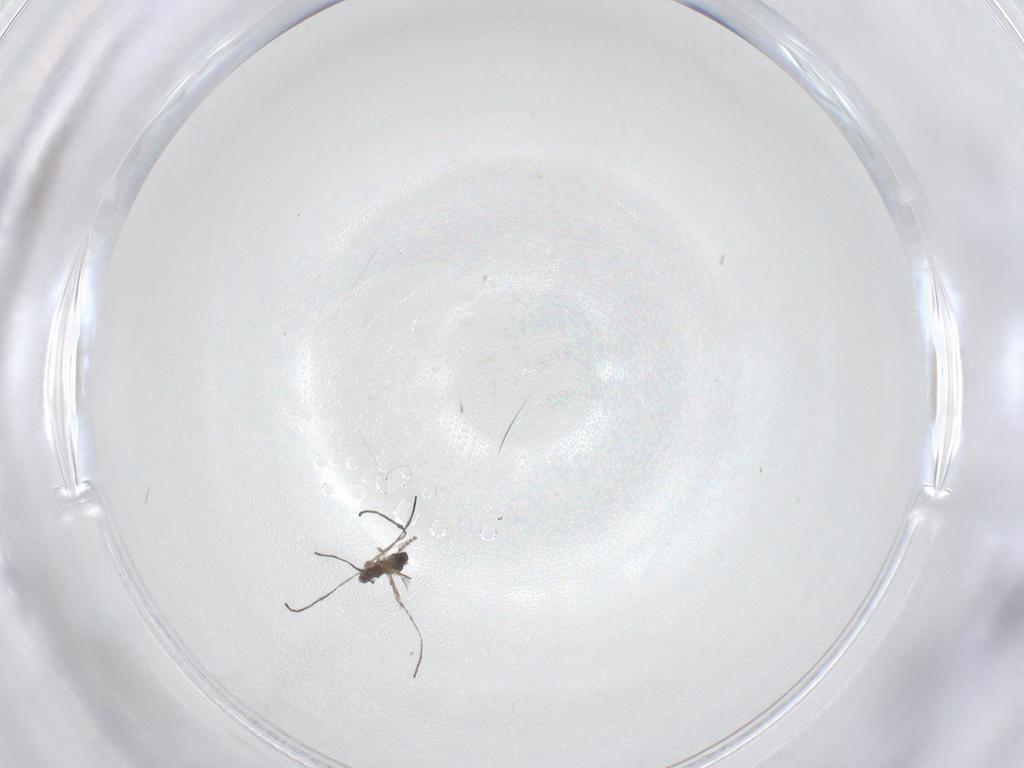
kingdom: Animalia
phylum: Arthropoda
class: Insecta
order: Diptera
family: Cecidomyiidae
